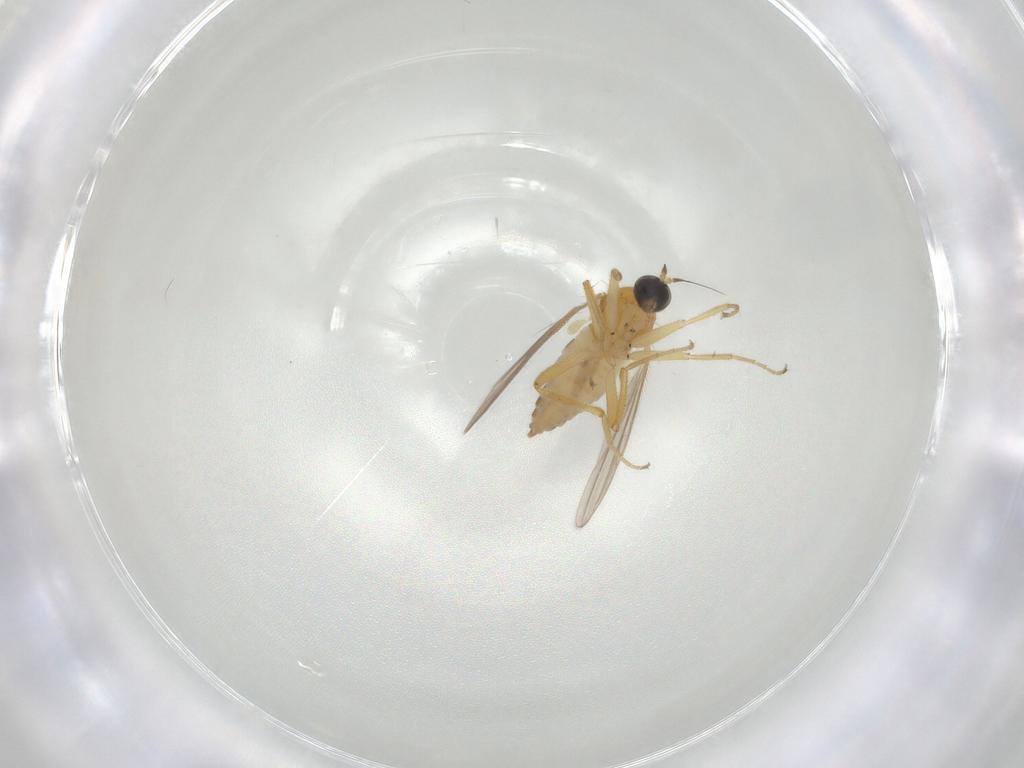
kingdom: Animalia
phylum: Arthropoda
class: Insecta
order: Diptera
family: Hybotidae
